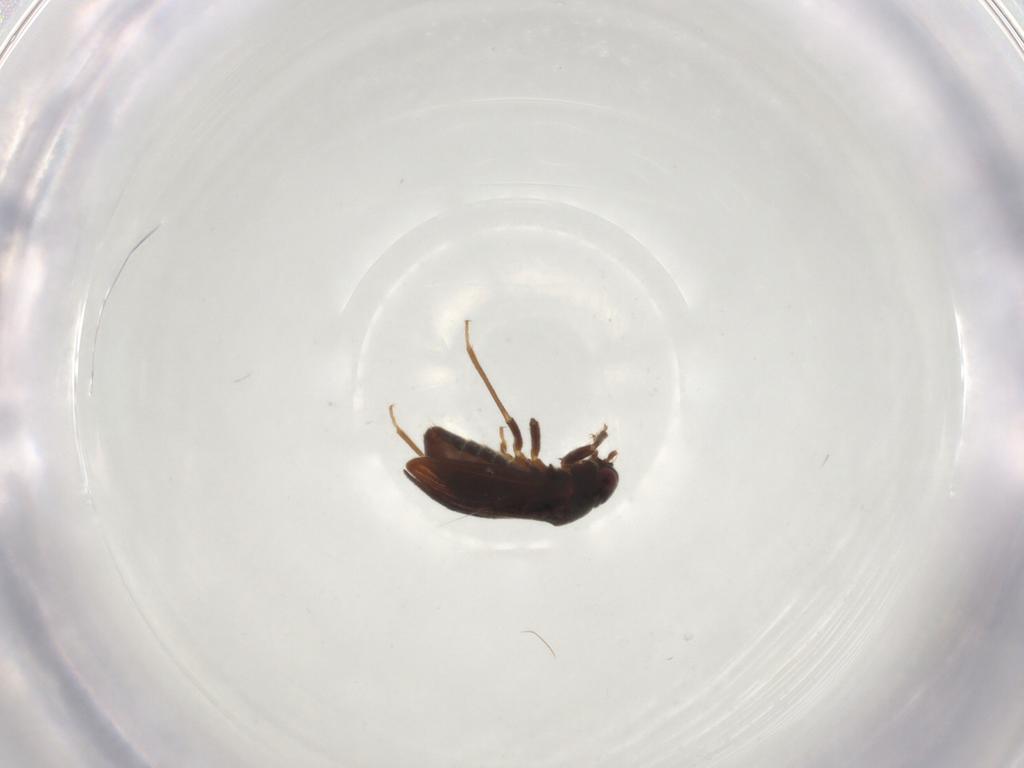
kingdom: Animalia
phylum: Arthropoda
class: Insecta
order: Hemiptera
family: Schizopteridae
